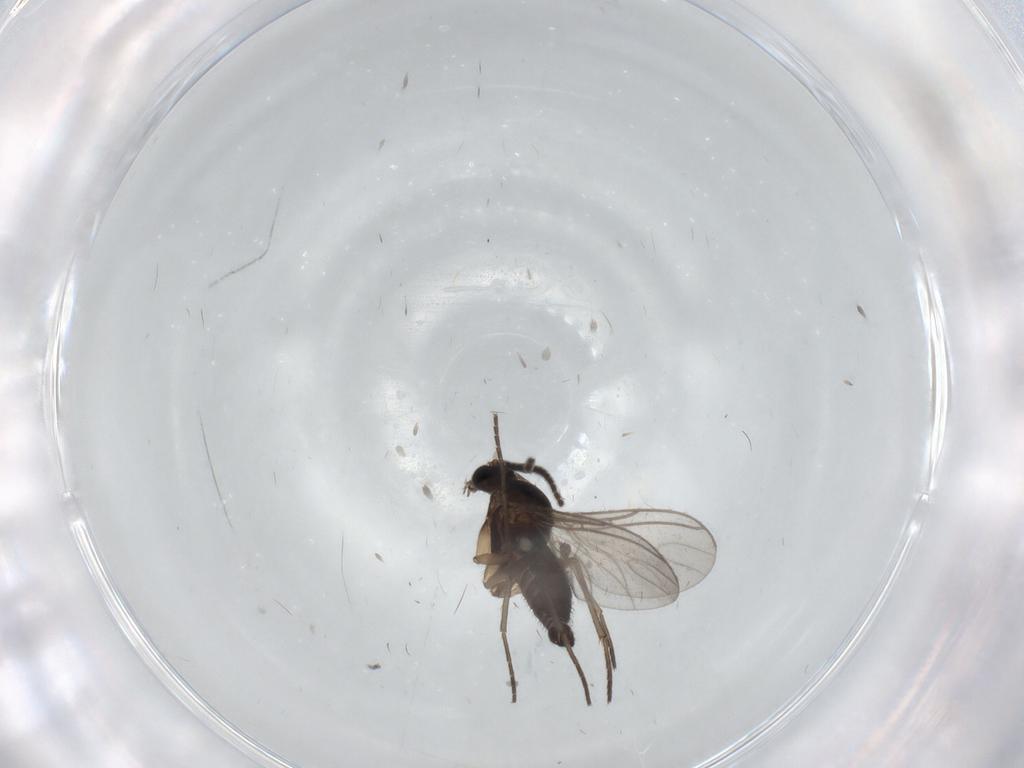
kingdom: Animalia
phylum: Arthropoda
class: Insecta
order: Diptera
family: Sciaridae
